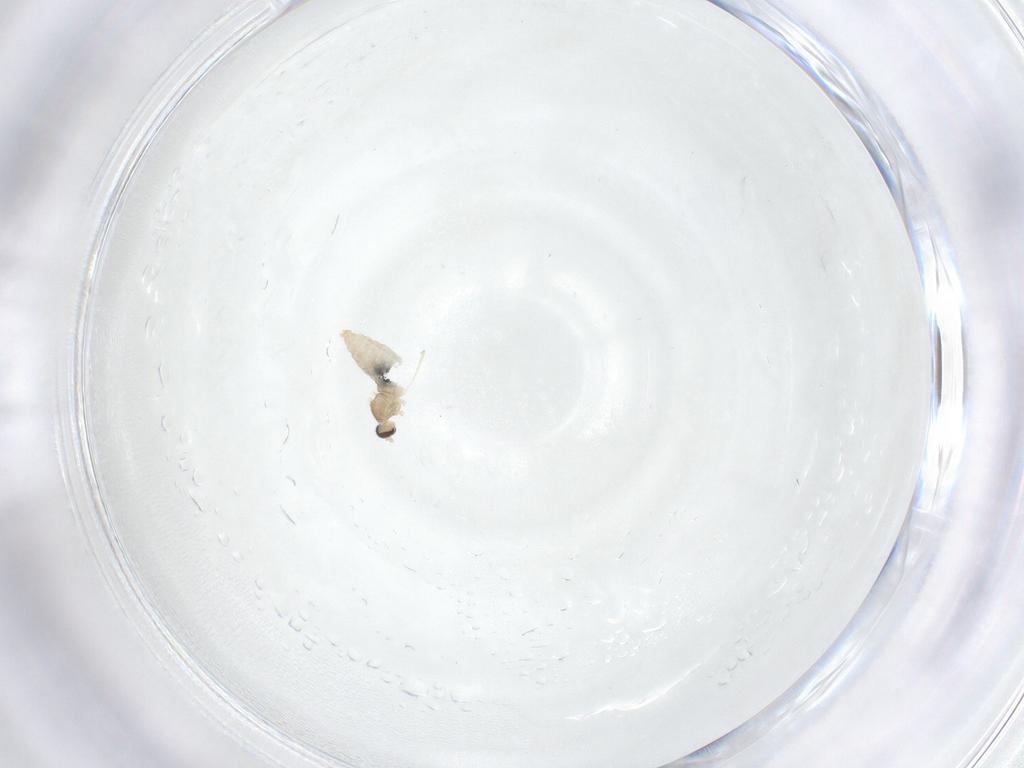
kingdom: Animalia
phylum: Arthropoda
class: Insecta
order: Diptera
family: Cecidomyiidae
